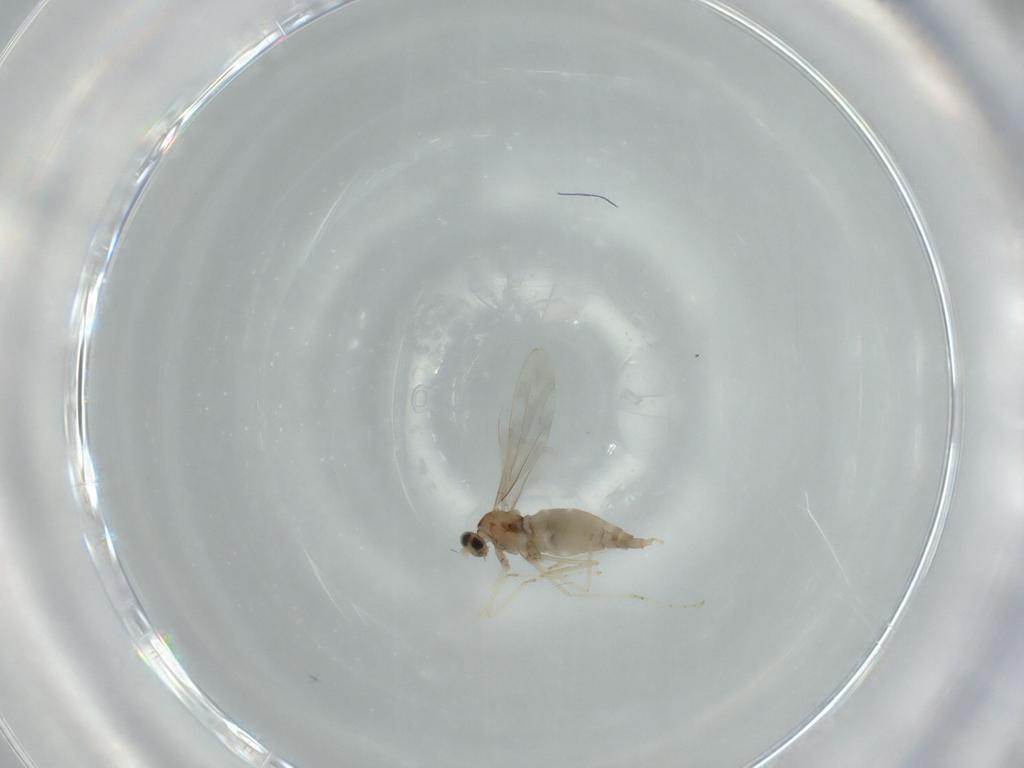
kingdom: Animalia
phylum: Arthropoda
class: Insecta
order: Diptera
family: Cecidomyiidae
